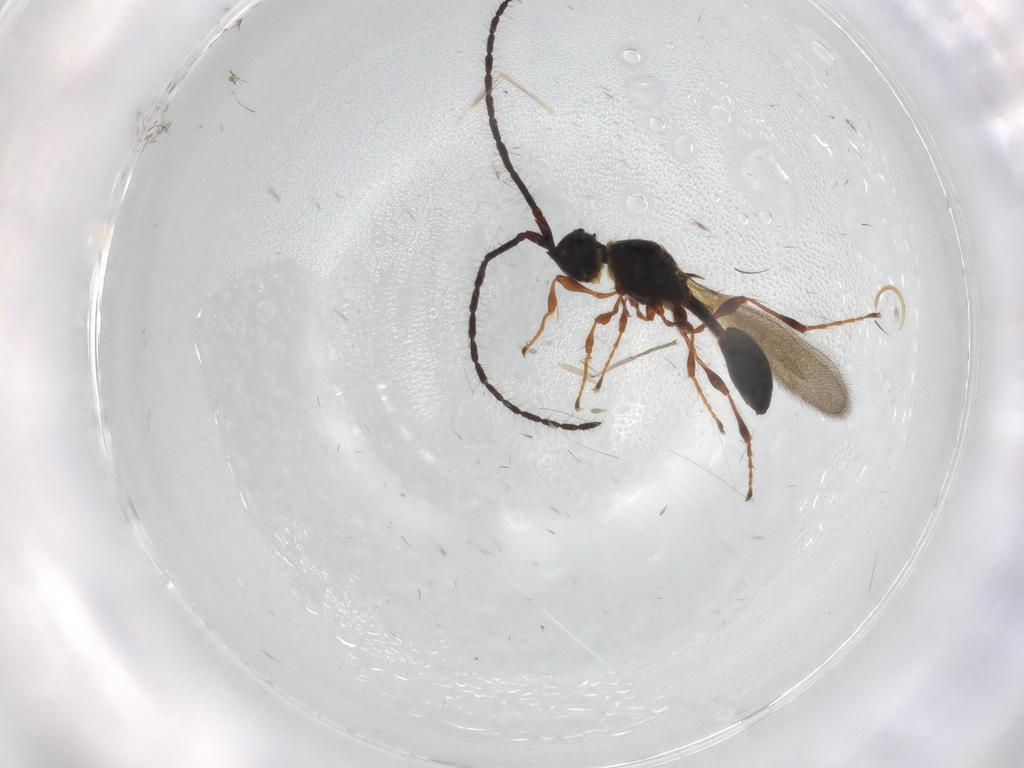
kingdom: Animalia
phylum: Arthropoda
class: Insecta
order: Hymenoptera
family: Diapriidae
